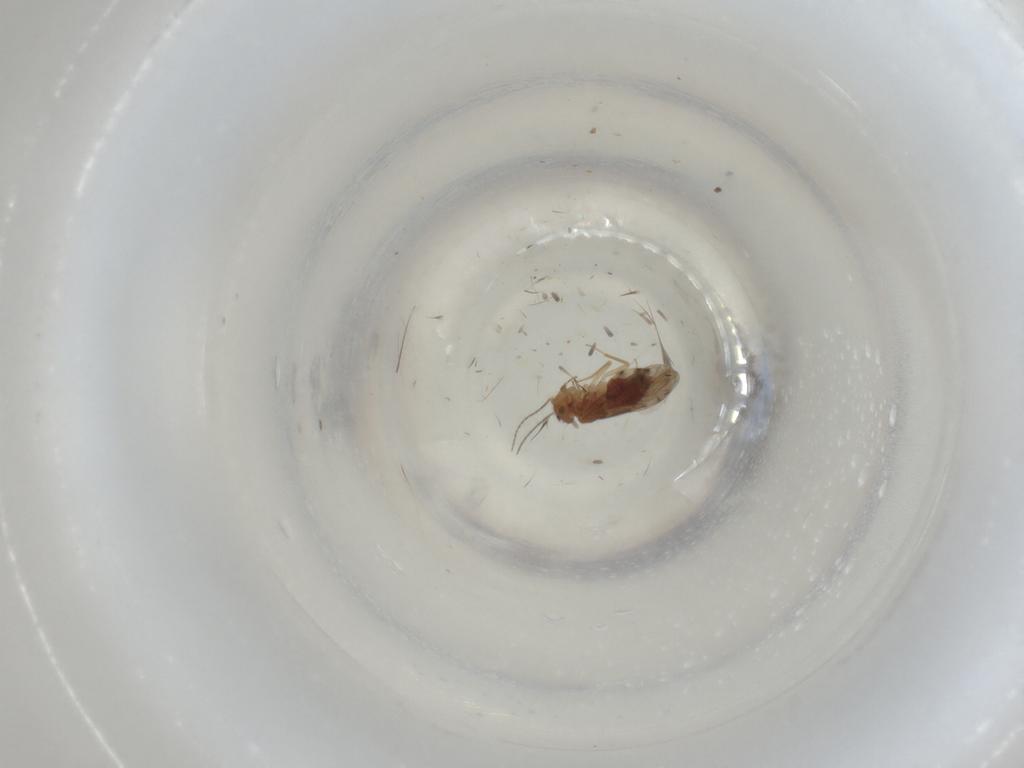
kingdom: Animalia
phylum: Arthropoda
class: Insecta
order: Diptera
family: Cecidomyiidae
